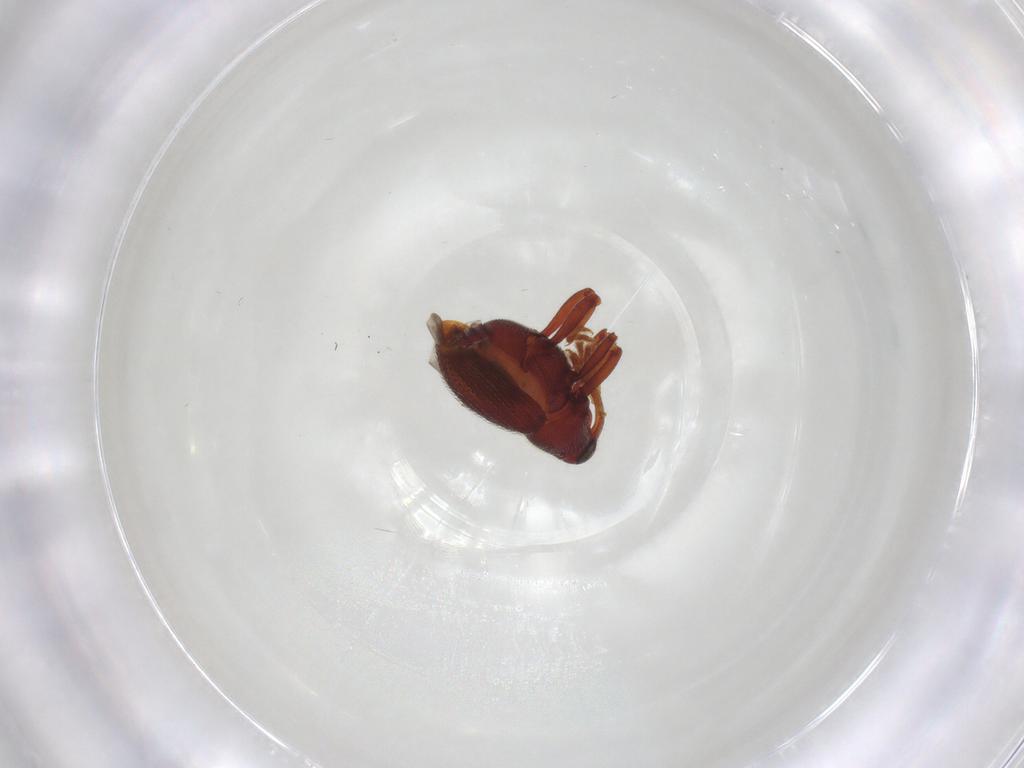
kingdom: Animalia
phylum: Arthropoda
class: Insecta
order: Coleoptera
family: Curculionidae
